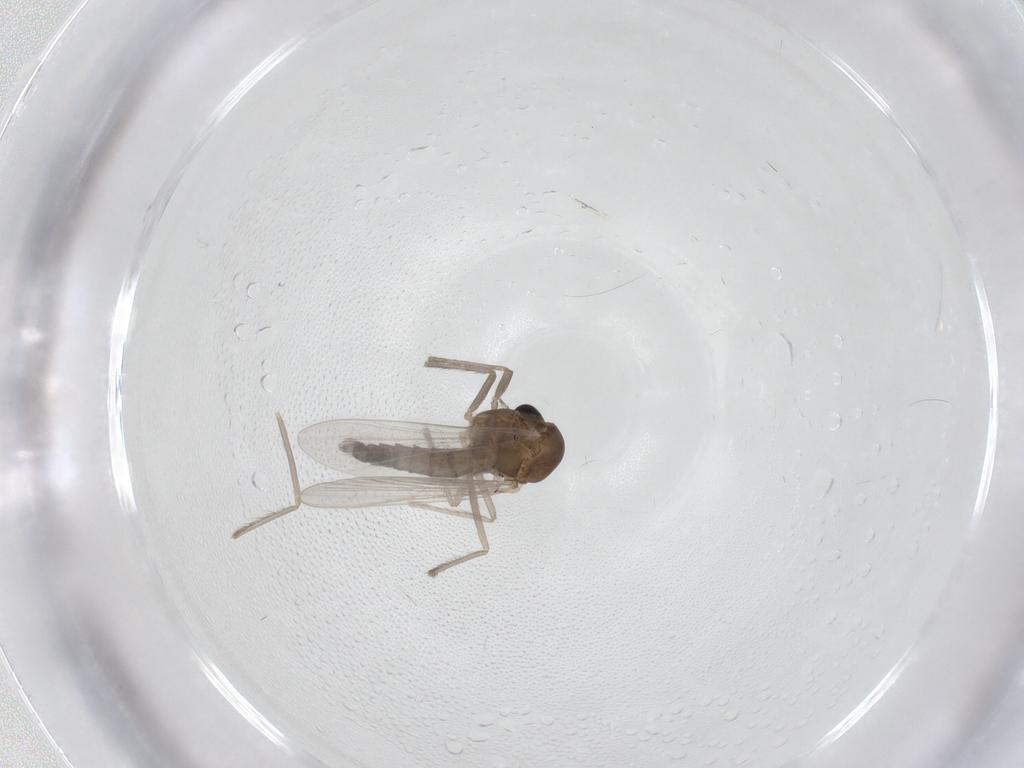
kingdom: Animalia
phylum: Arthropoda
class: Insecta
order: Diptera
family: Chironomidae
